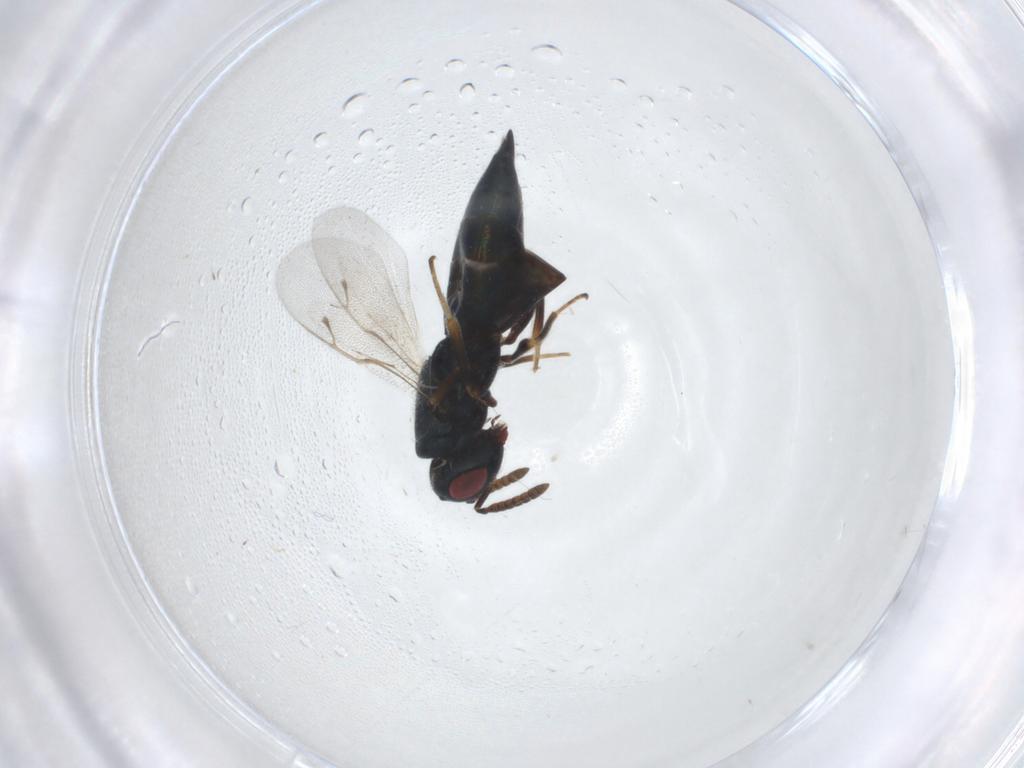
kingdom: Animalia
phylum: Arthropoda
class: Insecta
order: Hymenoptera
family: Pteromalidae
